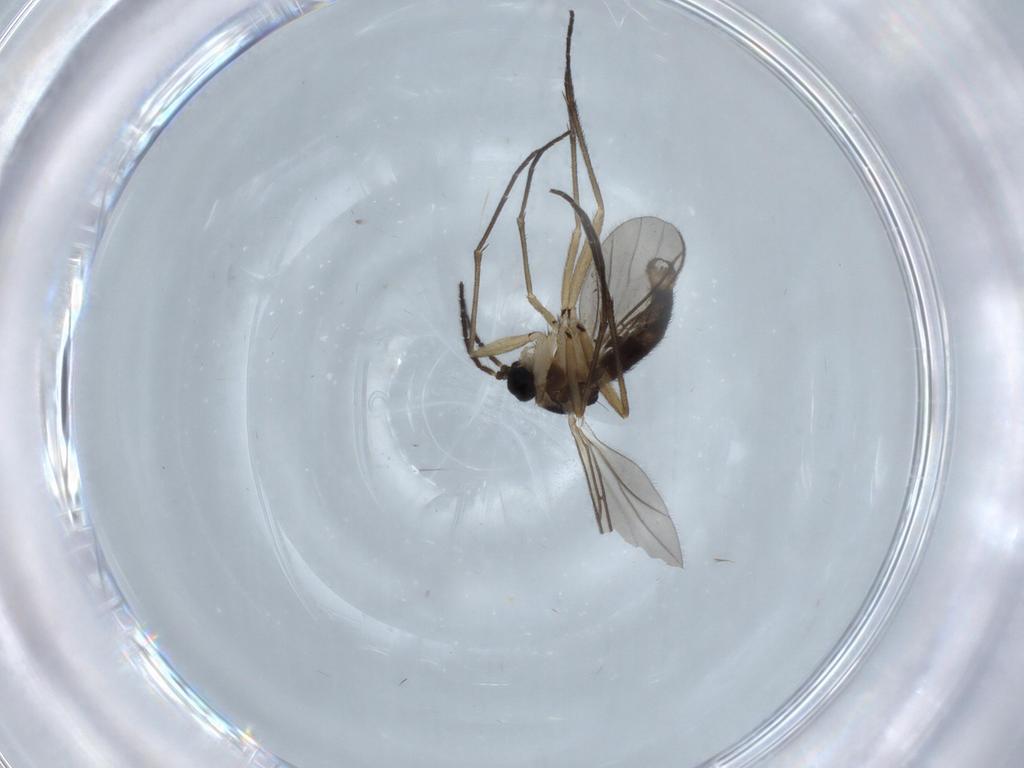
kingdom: Animalia
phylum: Arthropoda
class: Insecta
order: Diptera
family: Sciaridae
